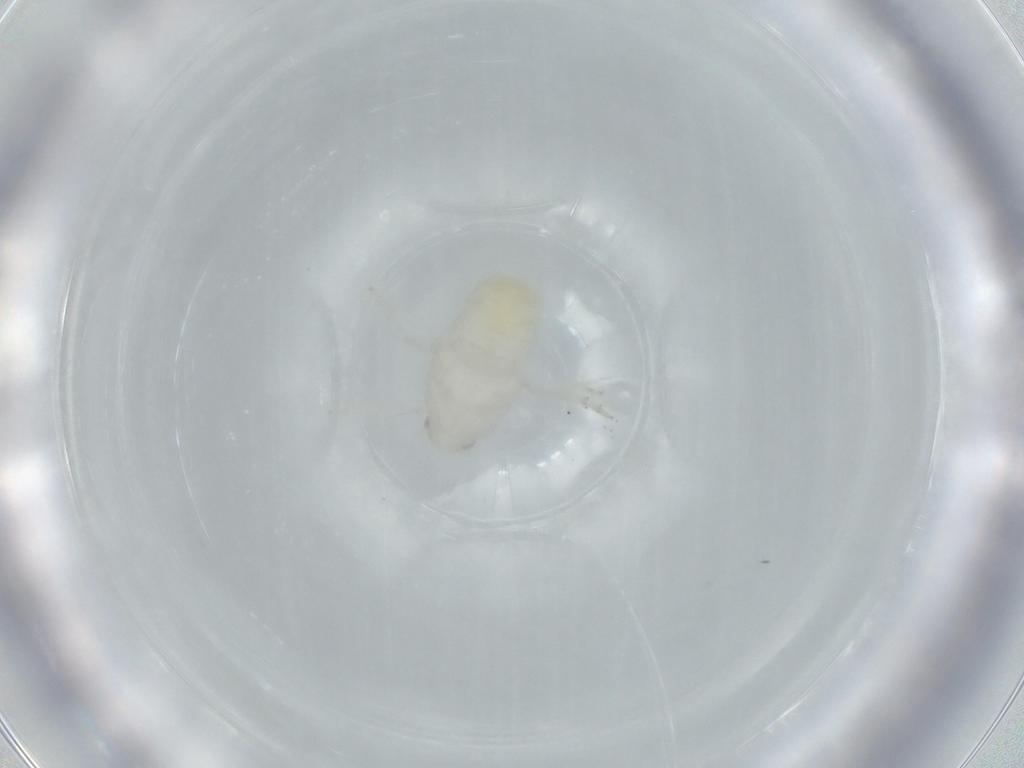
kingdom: Animalia
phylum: Arthropoda
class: Insecta
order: Hemiptera
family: Flatidae
